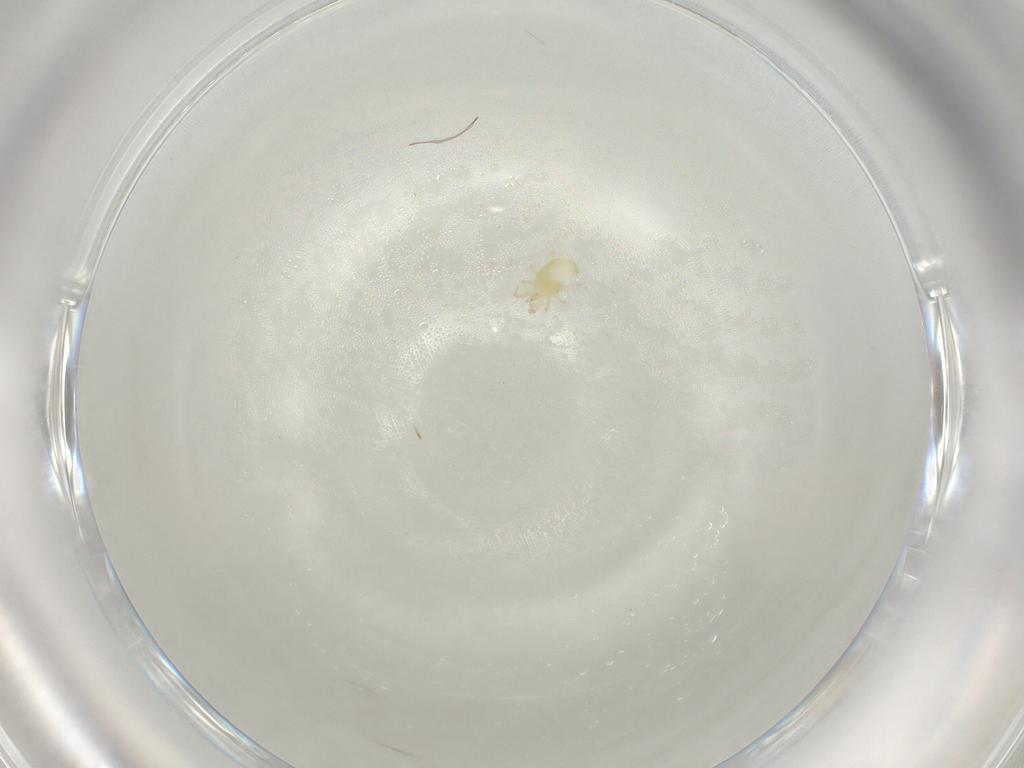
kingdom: Animalia
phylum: Arthropoda
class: Arachnida
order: Mesostigmata
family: Phytoseiidae
